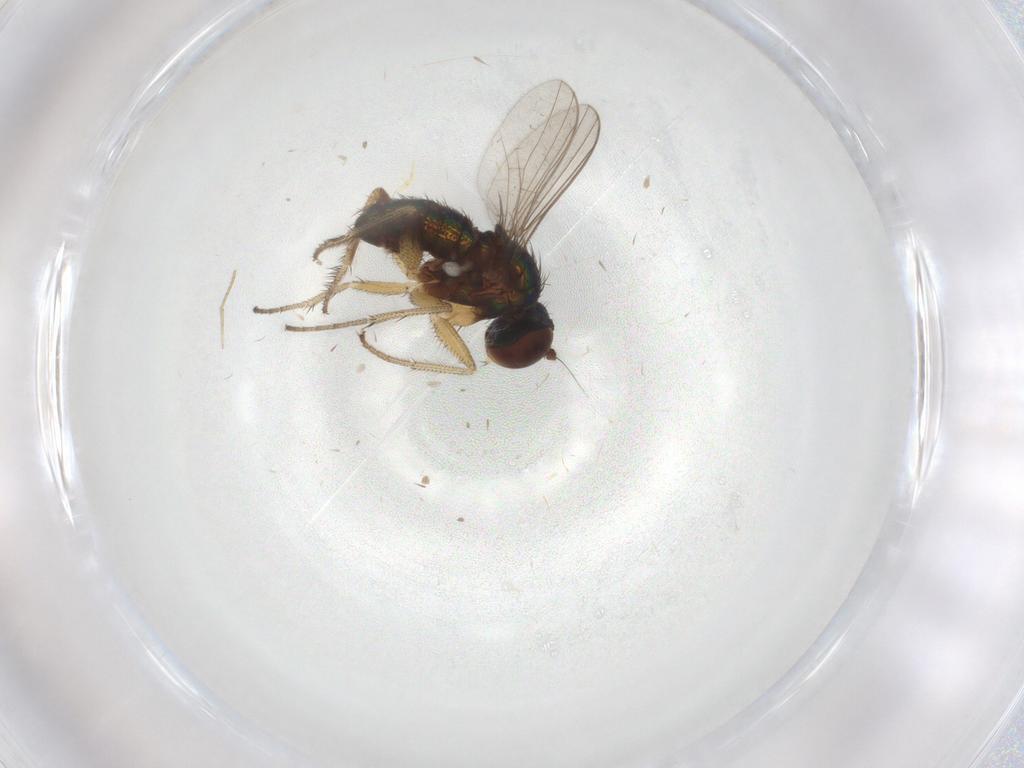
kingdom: Animalia
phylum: Arthropoda
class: Insecta
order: Diptera
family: Dolichopodidae
